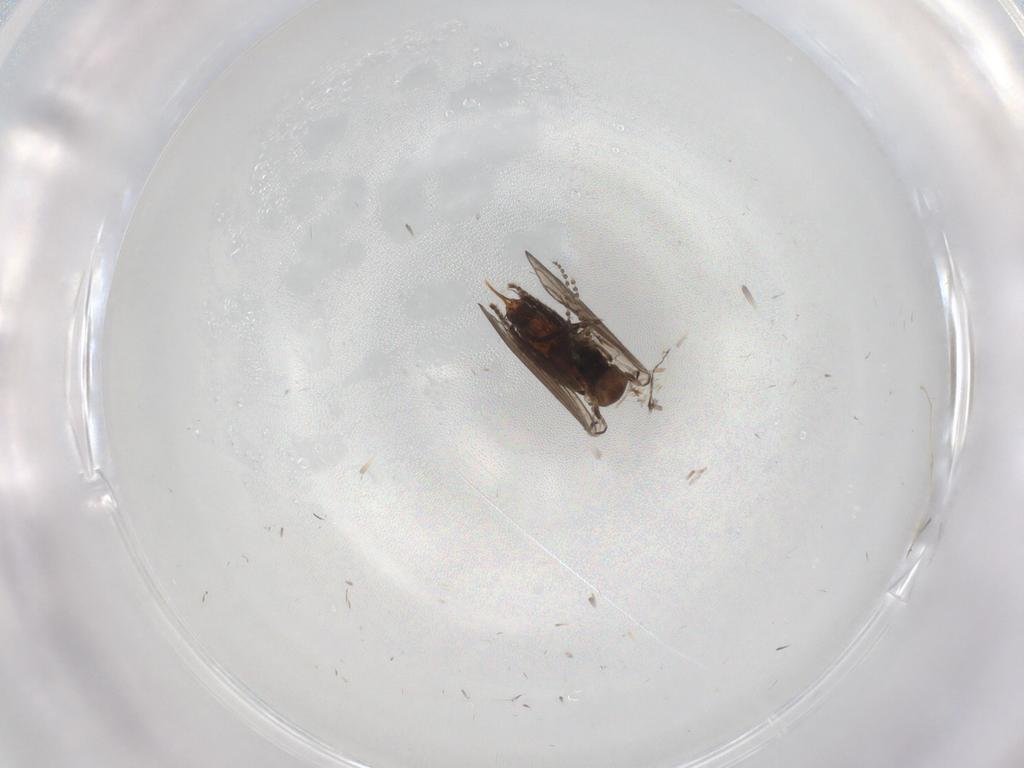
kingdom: Animalia
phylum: Arthropoda
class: Insecta
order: Diptera
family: Psychodidae
